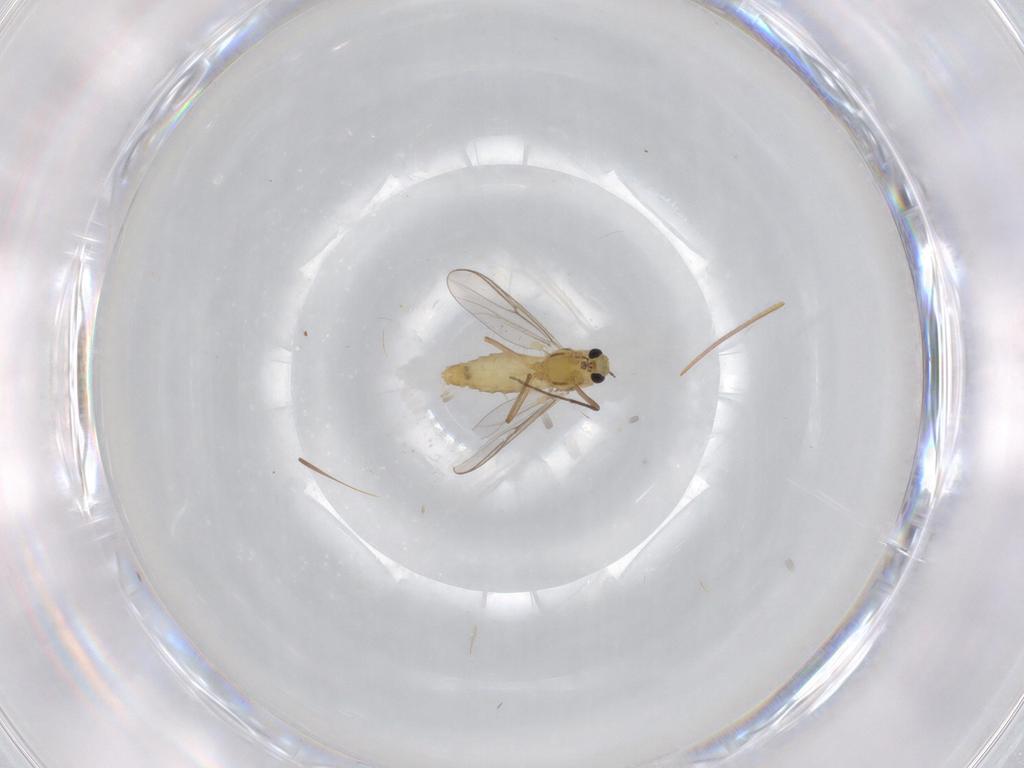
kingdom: Animalia
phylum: Arthropoda
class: Insecta
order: Diptera
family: Chironomidae
